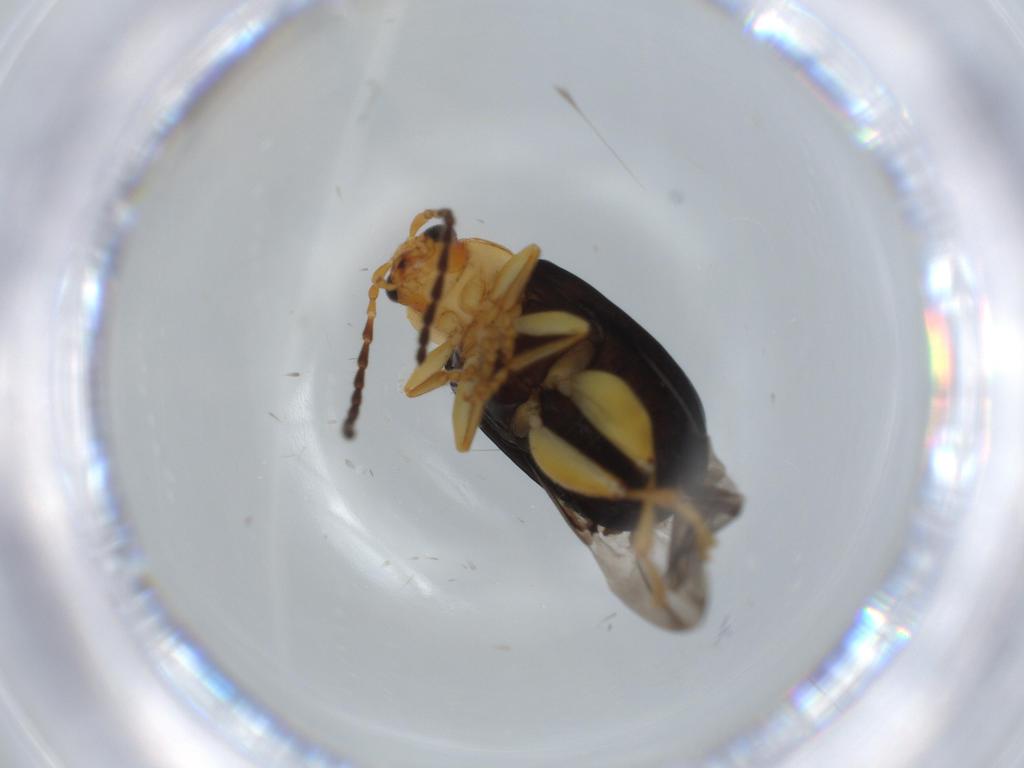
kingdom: Animalia
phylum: Arthropoda
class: Insecta
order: Coleoptera
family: Chrysomelidae
